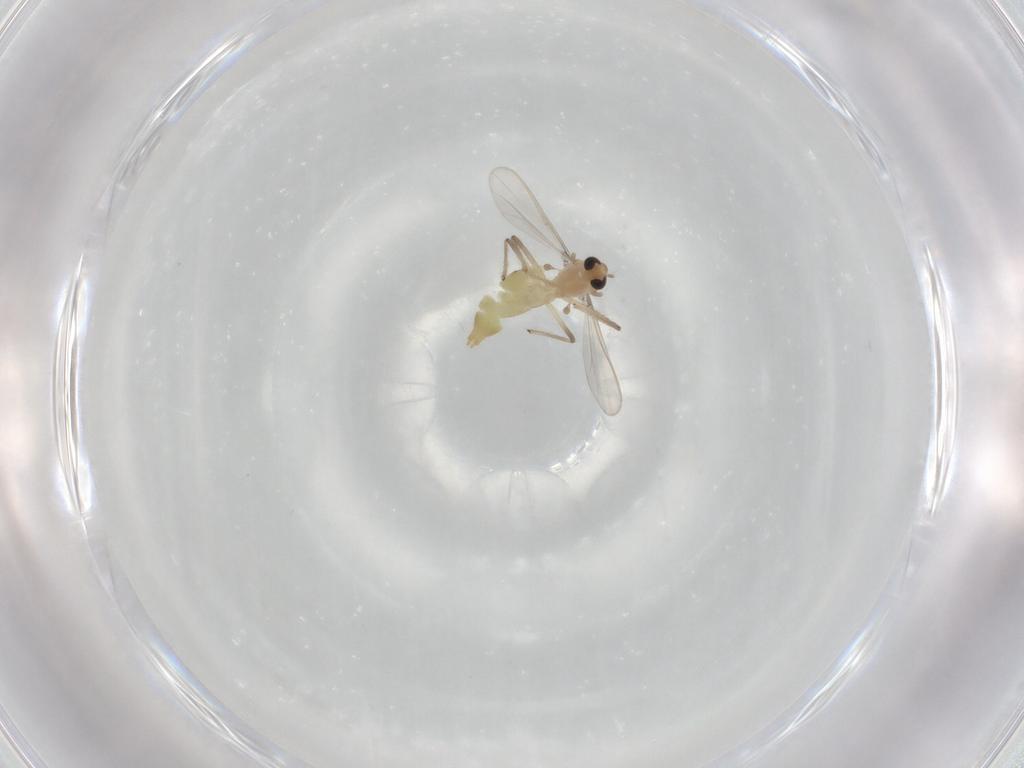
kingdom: Animalia
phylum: Arthropoda
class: Insecta
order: Diptera
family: Chironomidae
